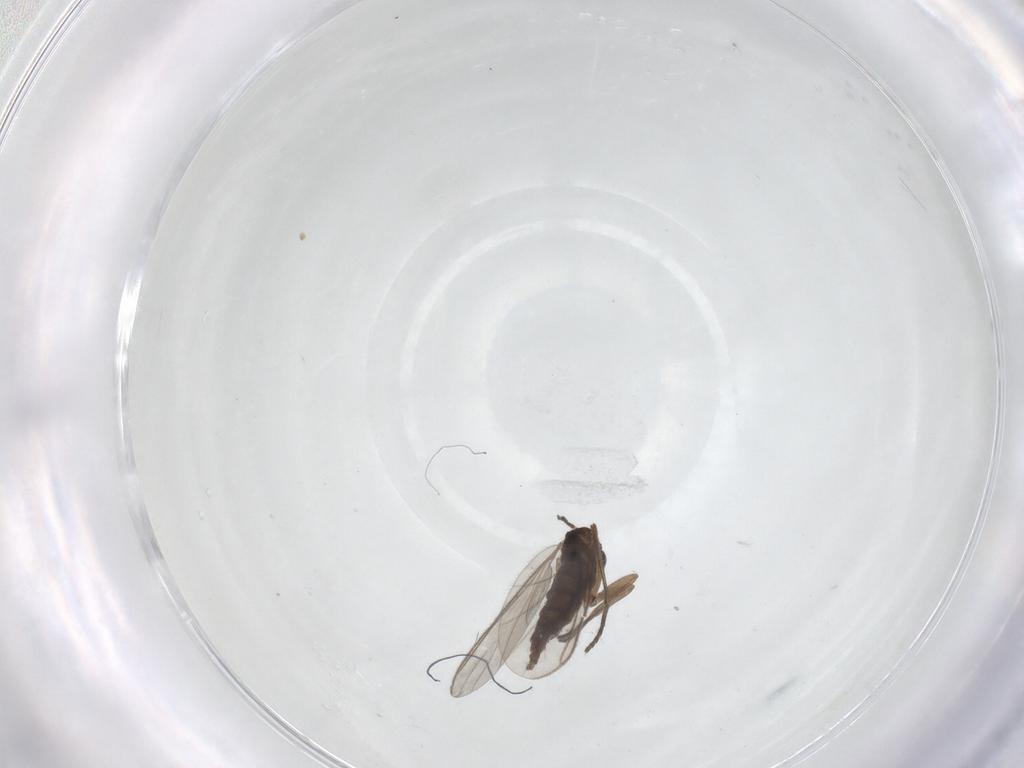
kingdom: Animalia
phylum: Arthropoda
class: Insecta
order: Diptera
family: Sciaridae
